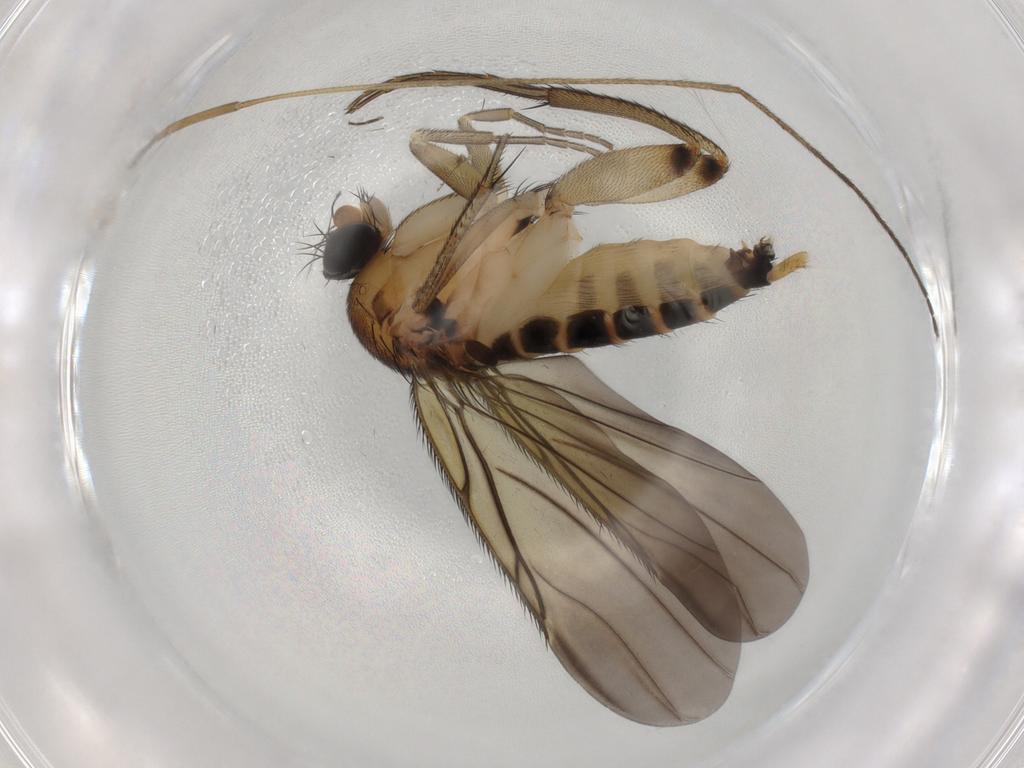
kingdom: Animalia
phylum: Arthropoda
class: Insecta
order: Diptera
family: Limoniidae
